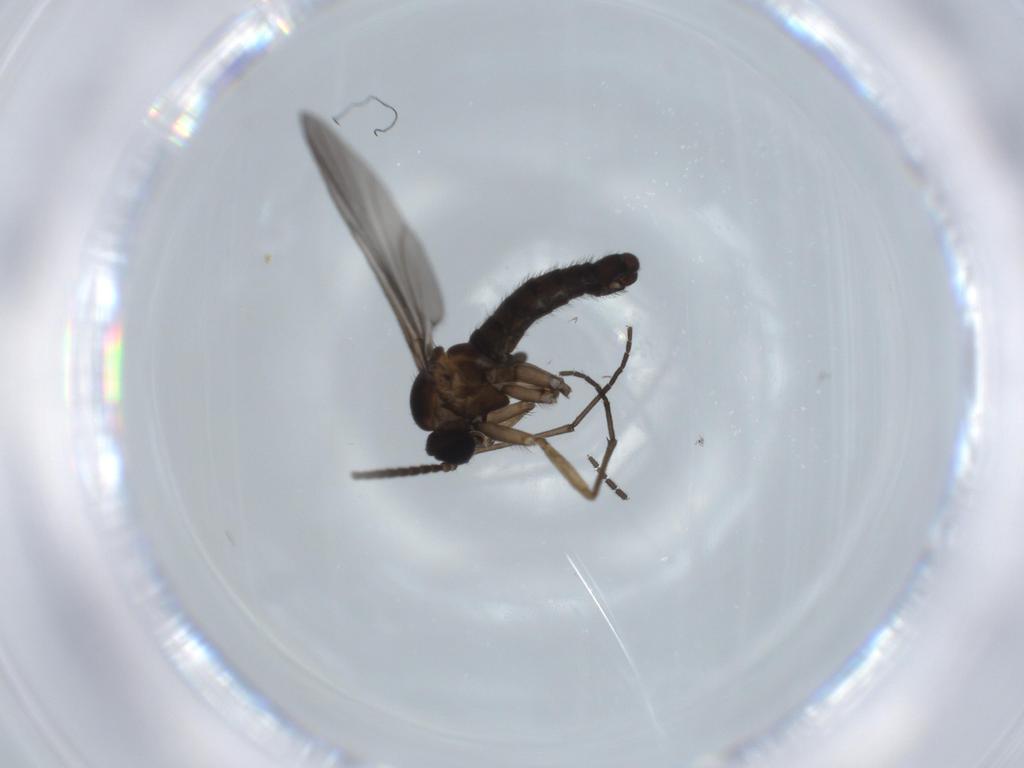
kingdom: Animalia
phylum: Arthropoda
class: Insecta
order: Diptera
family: Sciaridae
